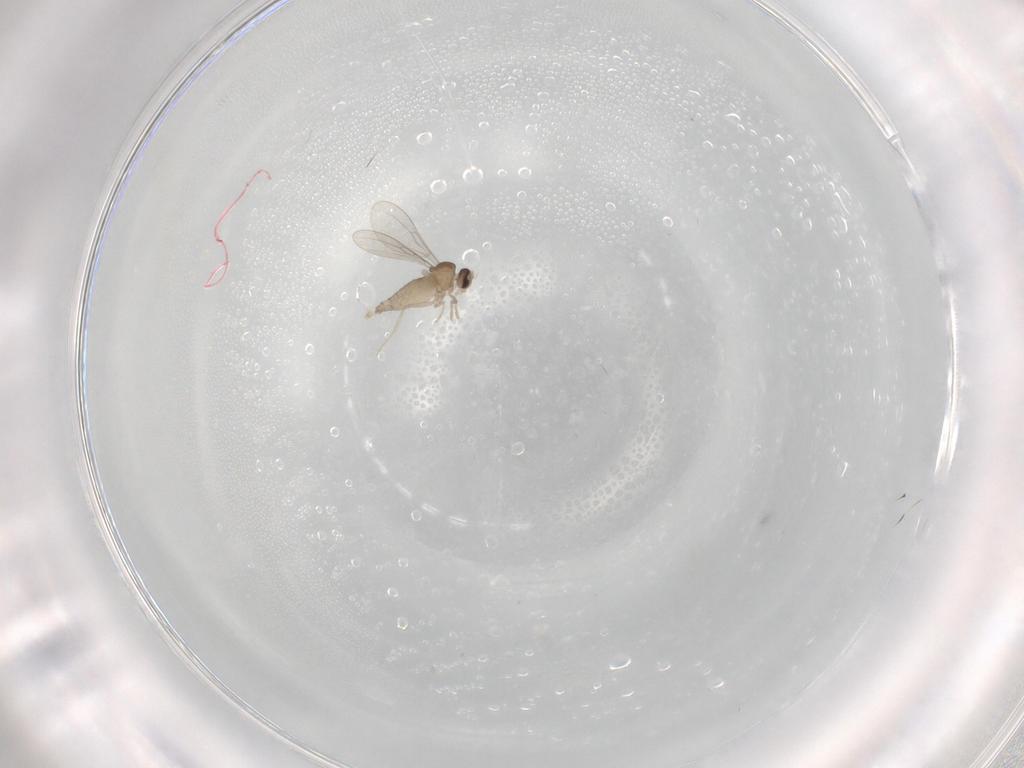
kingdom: Animalia
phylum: Arthropoda
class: Insecta
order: Diptera
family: Cecidomyiidae
